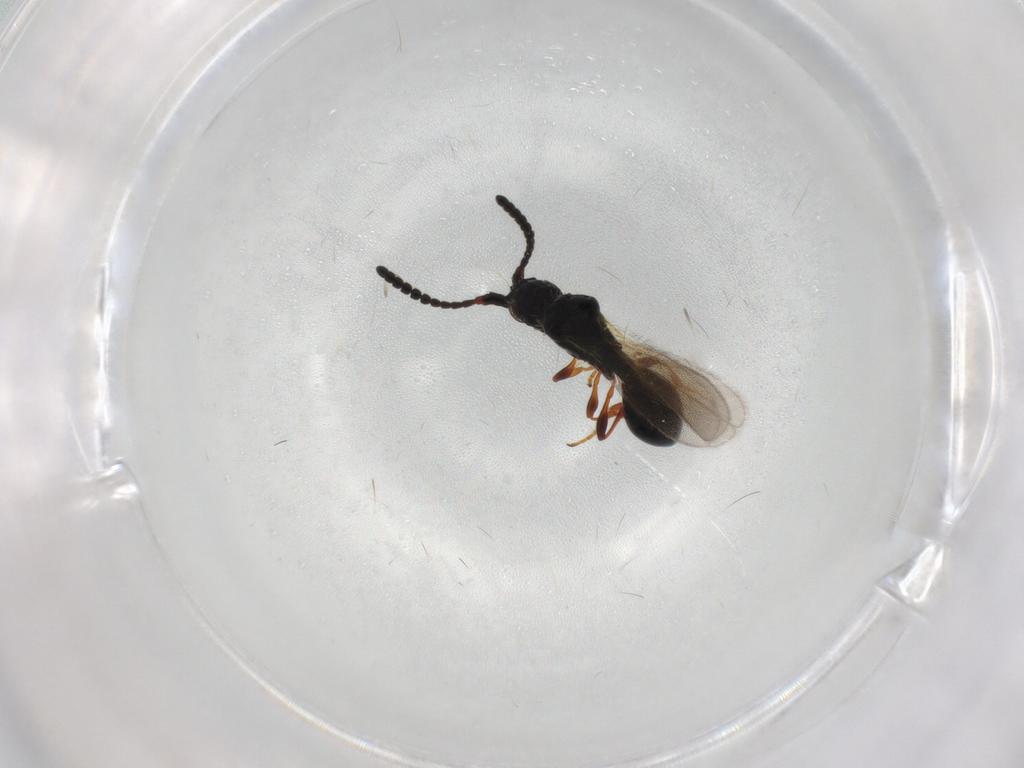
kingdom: Animalia
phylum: Arthropoda
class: Insecta
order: Hymenoptera
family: Diapriidae
